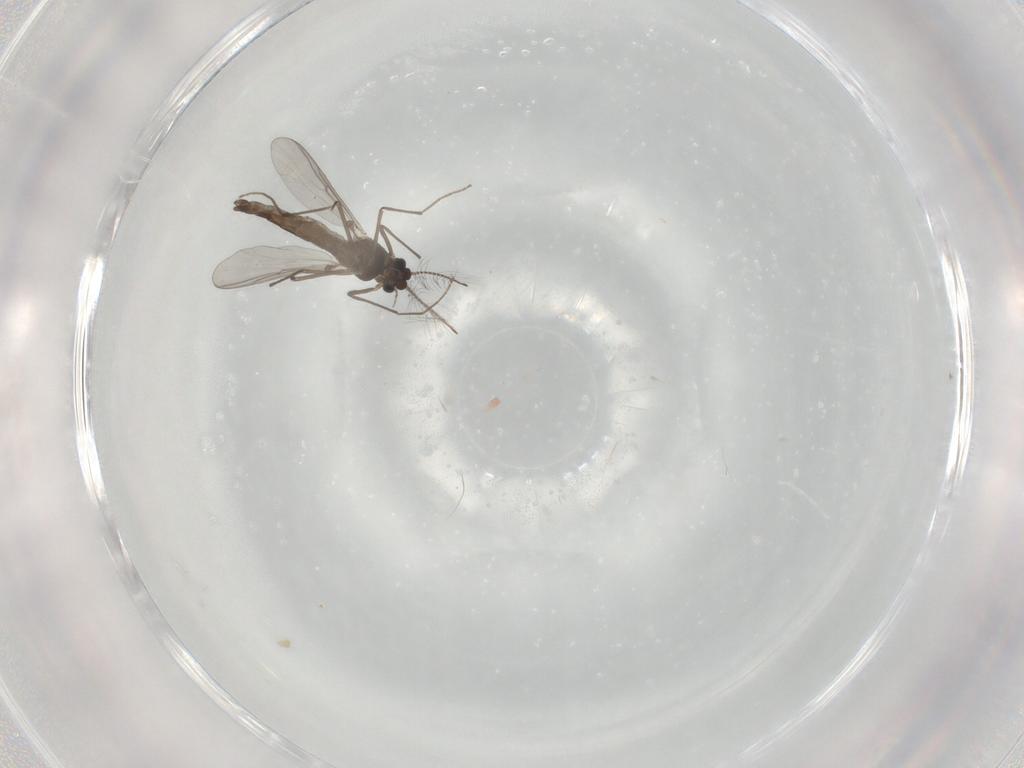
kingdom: Animalia
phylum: Arthropoda
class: Insecta
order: Diptera
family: Chironomidae
